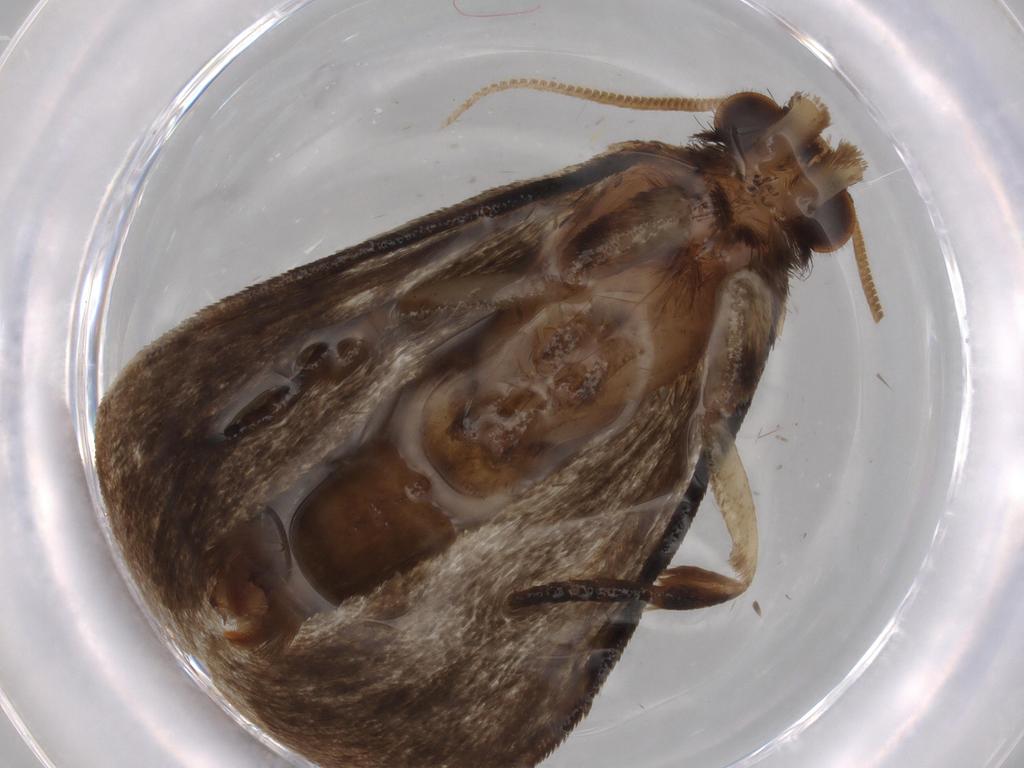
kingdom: Animalia
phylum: Arthropoda
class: Insecta
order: Lepidoptera
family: Tineidae
